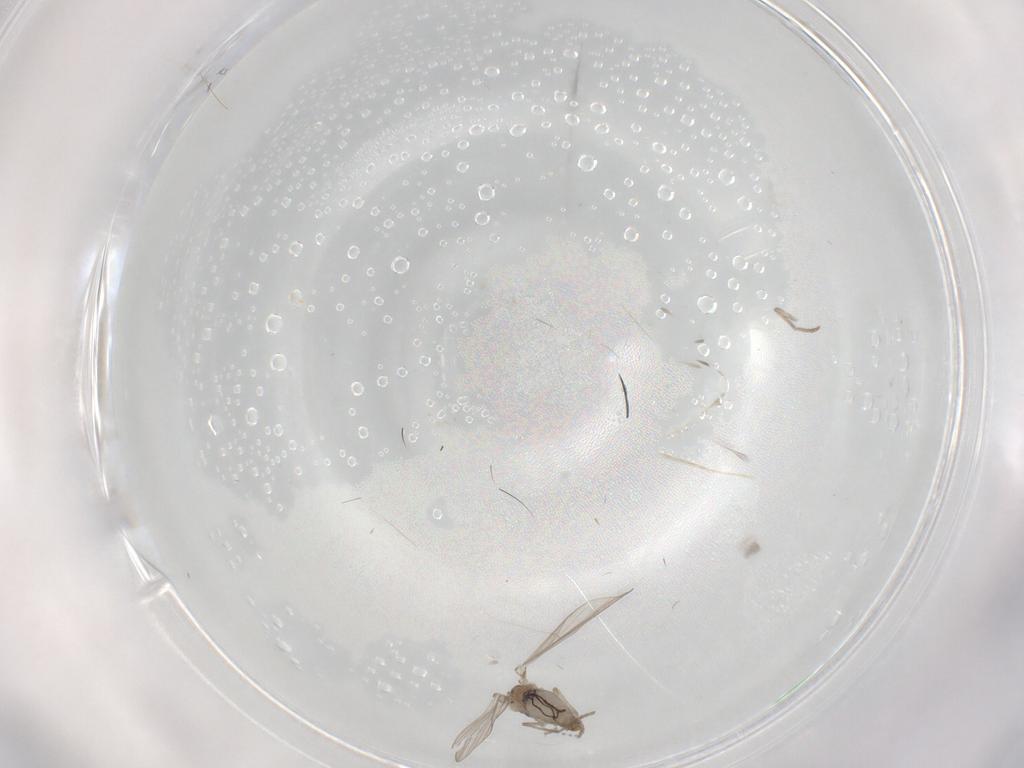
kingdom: Animalia
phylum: Arthropoda
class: Insecta
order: Diptera
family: Psychodidae
